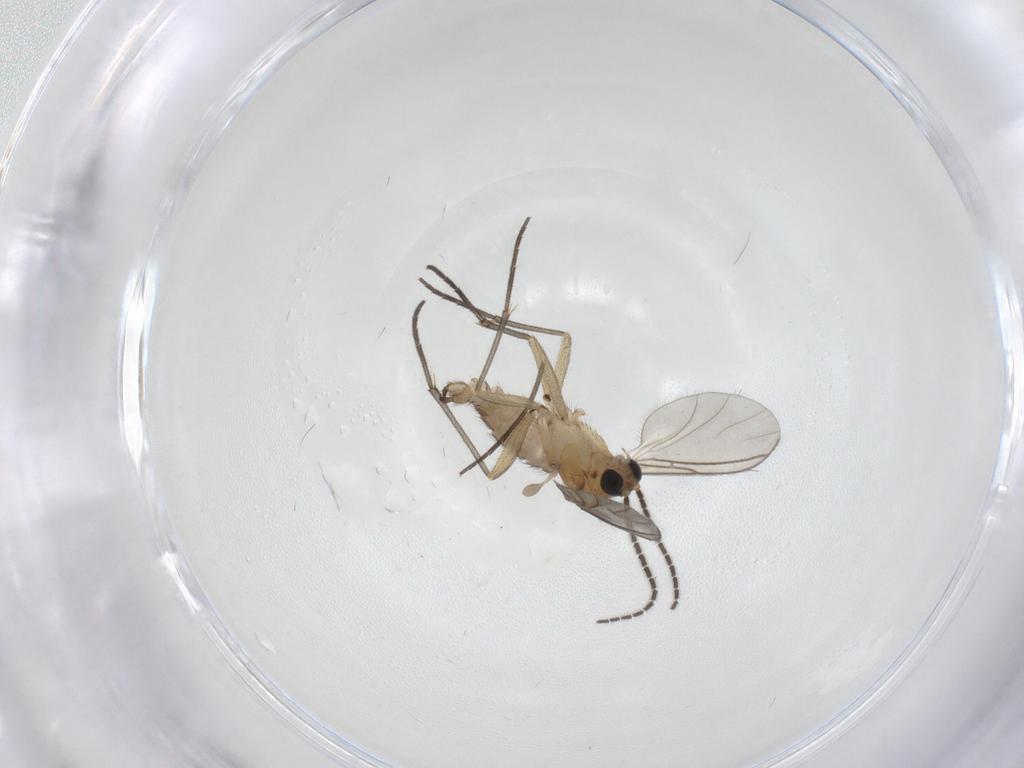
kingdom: Animalia
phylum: Arthropoda
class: Insecta
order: Diptera
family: Sciaridae
